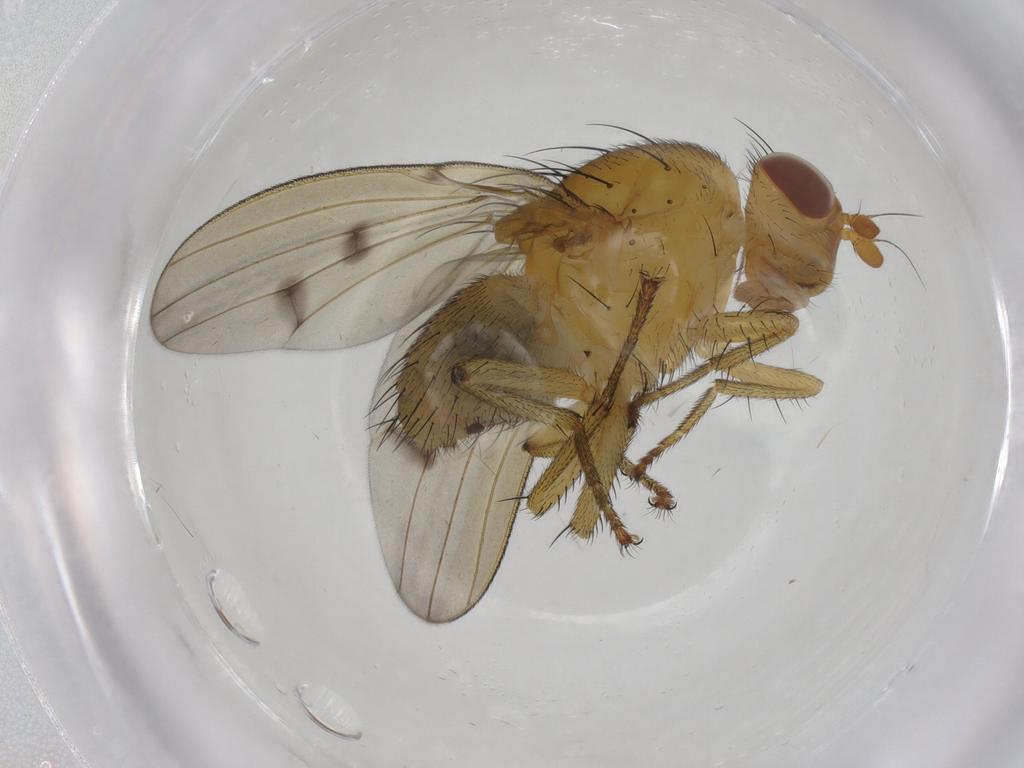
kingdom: Animalia
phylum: Arthropoda
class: Insecta
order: Diptera
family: Chironomidae
